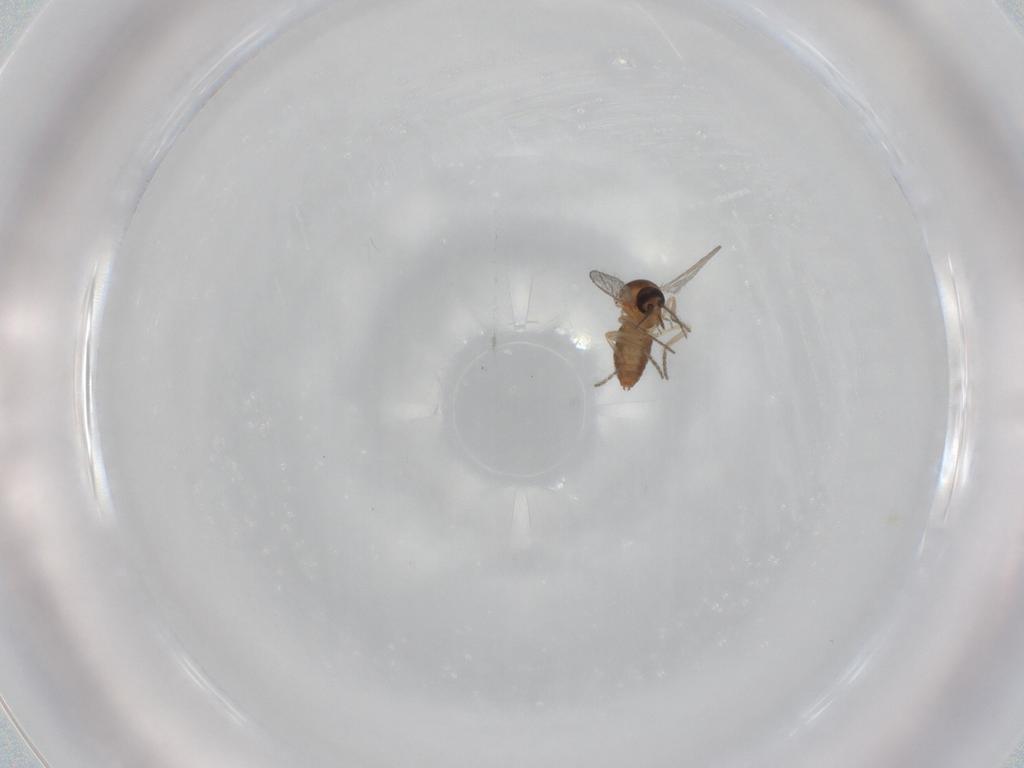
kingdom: Animalia
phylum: Arthropoda
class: Insecta
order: Diptera
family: Ceratopogonidae
